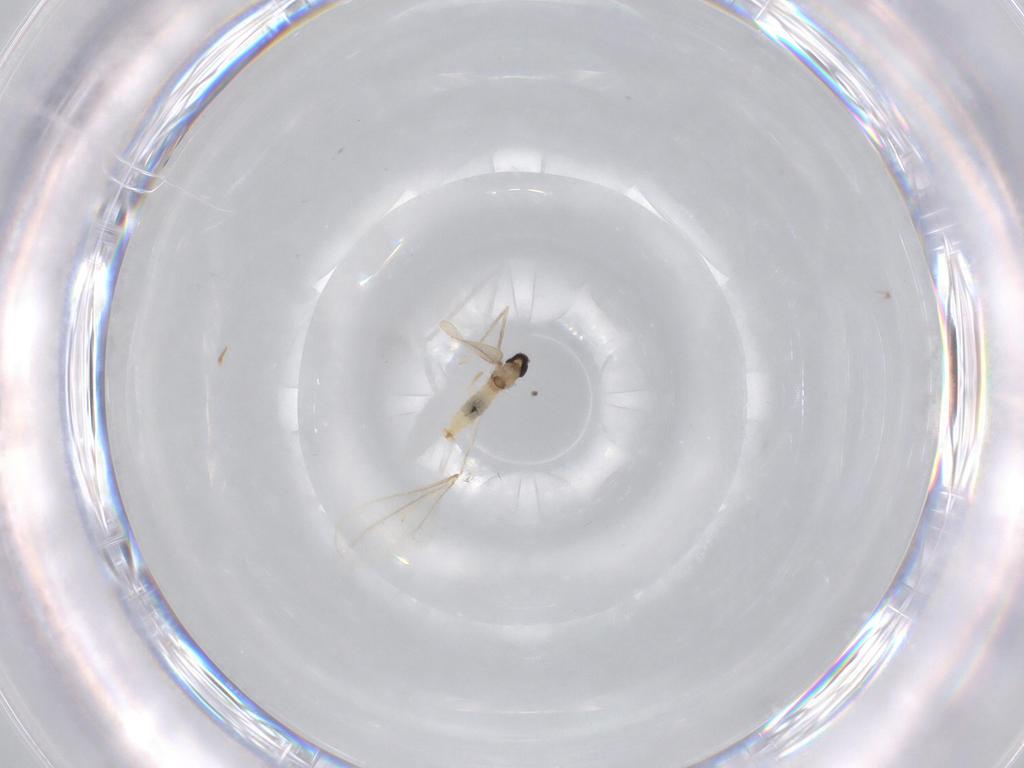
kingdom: Animalia
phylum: Arthropoda
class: Insecta
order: Diptera
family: Cecidomyiidae
